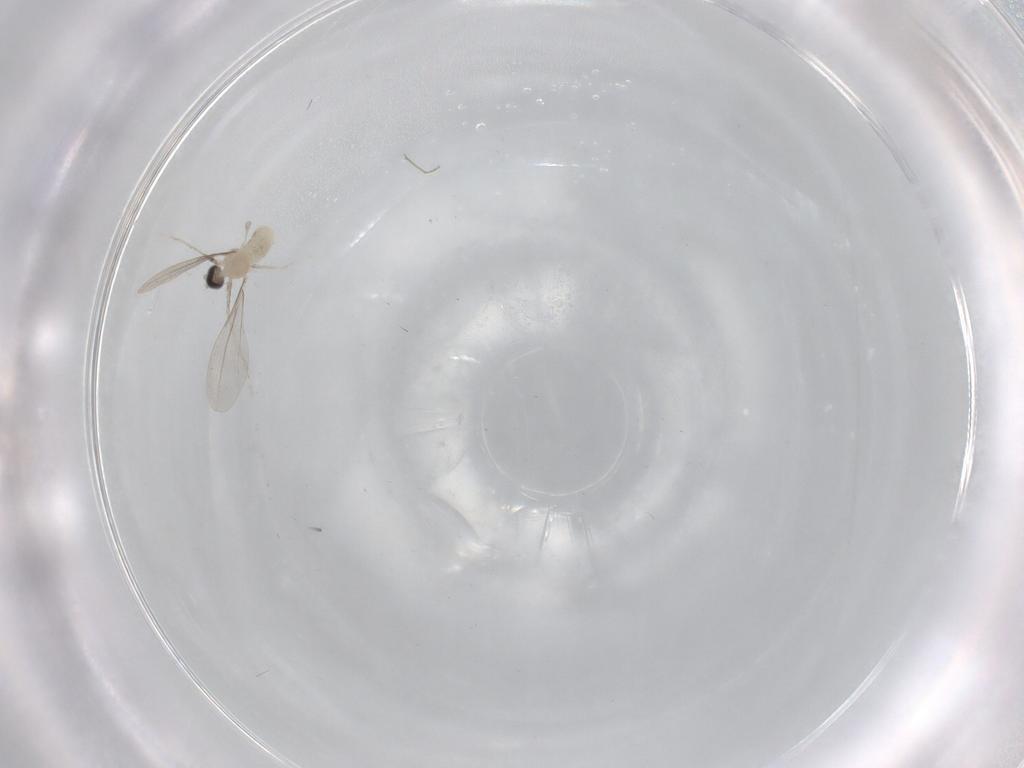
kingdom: Animalia
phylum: Arthropoda
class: Insecta
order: Diptera
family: Cecidomyiidae
